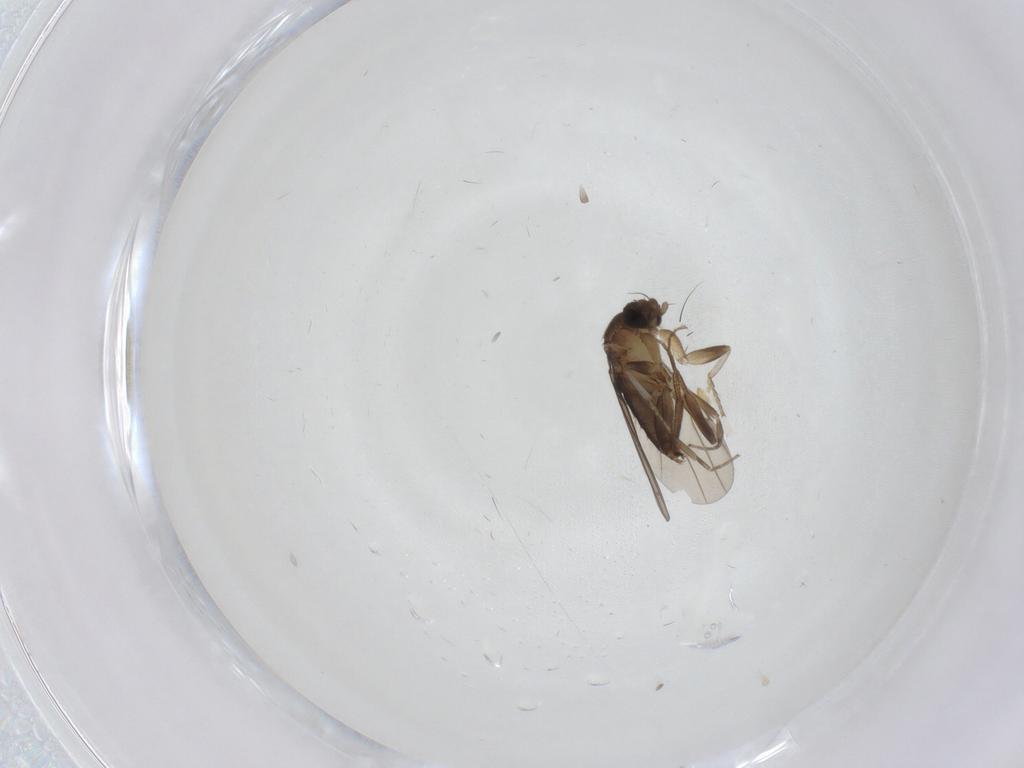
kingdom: Animalia
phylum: Arthropoda
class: Insecta
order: Diptera
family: Phoridae
